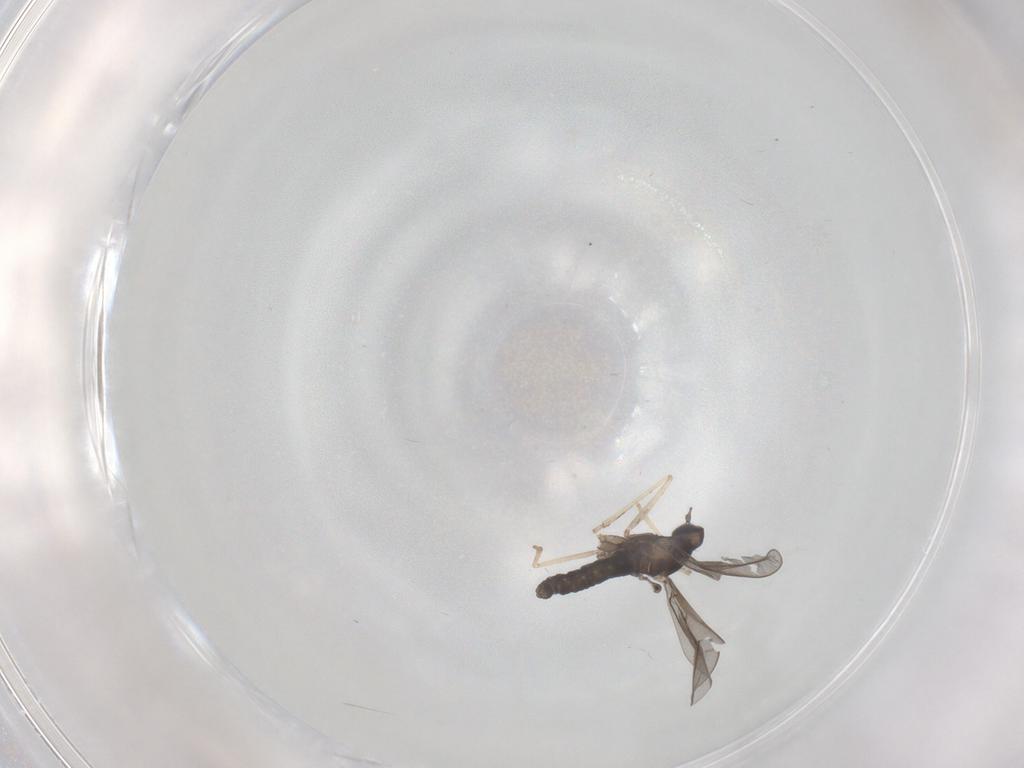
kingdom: Animalia
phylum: Arthropoda
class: Insecta
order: Diptera
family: Cecidomyiidae
